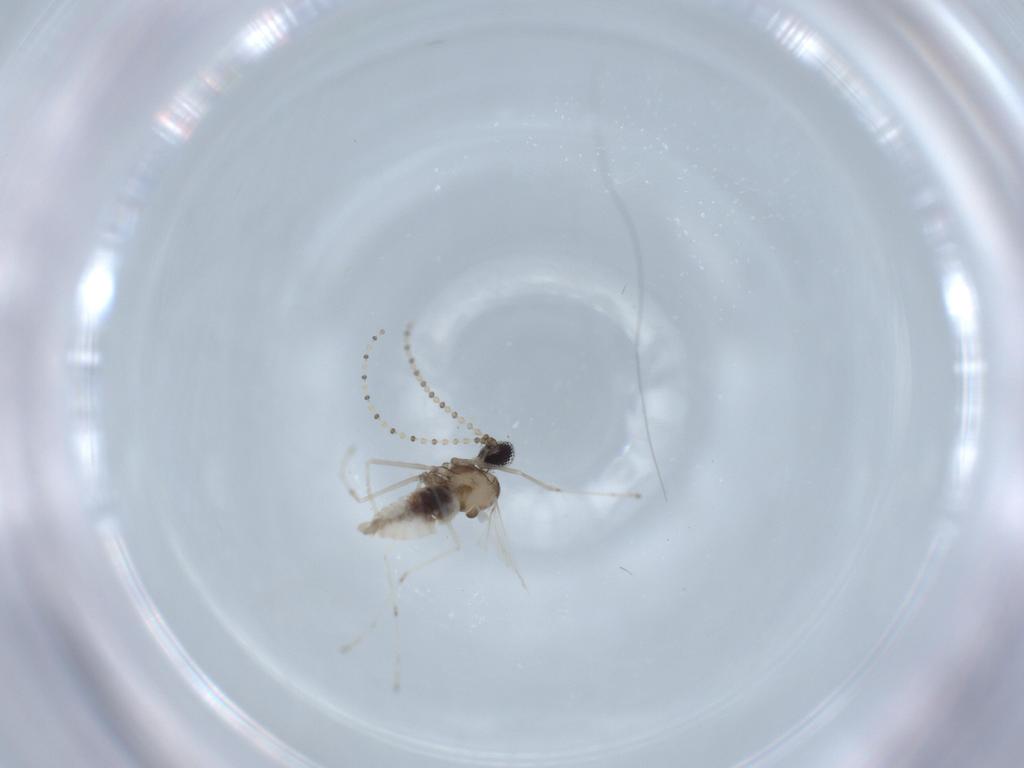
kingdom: Animalia
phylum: Arthropoda
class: Insecta
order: Diptera
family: Cecidomyiidae
